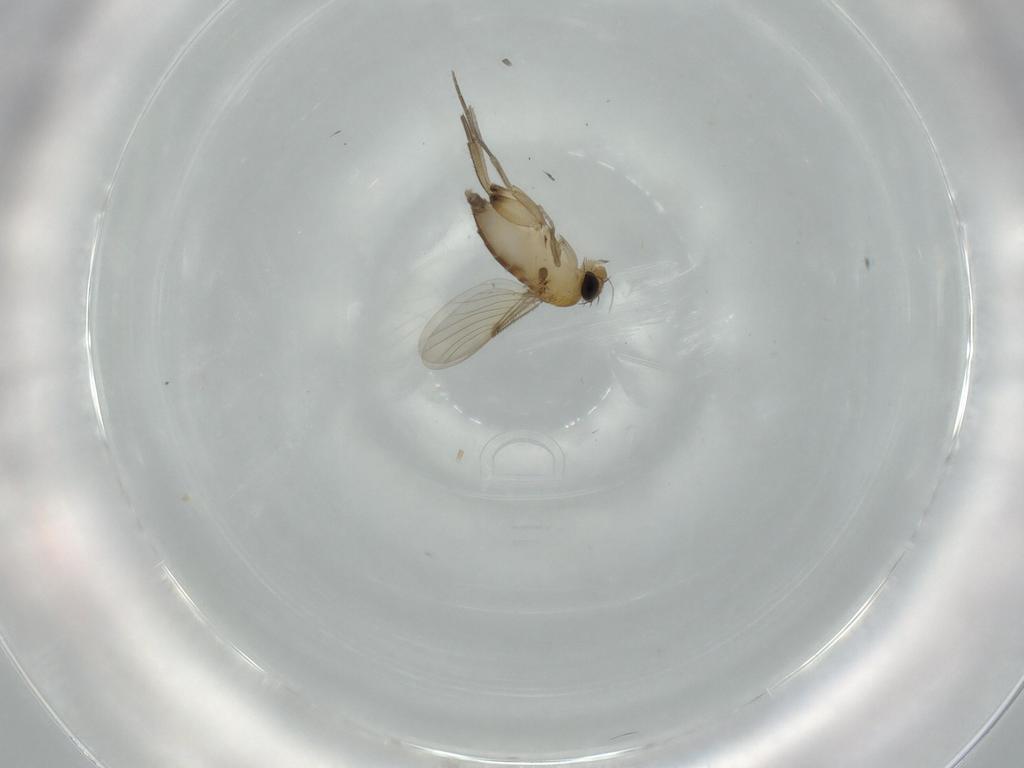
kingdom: Animalia
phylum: Arthropoda
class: Insecta
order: Diptera
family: Phoridae
